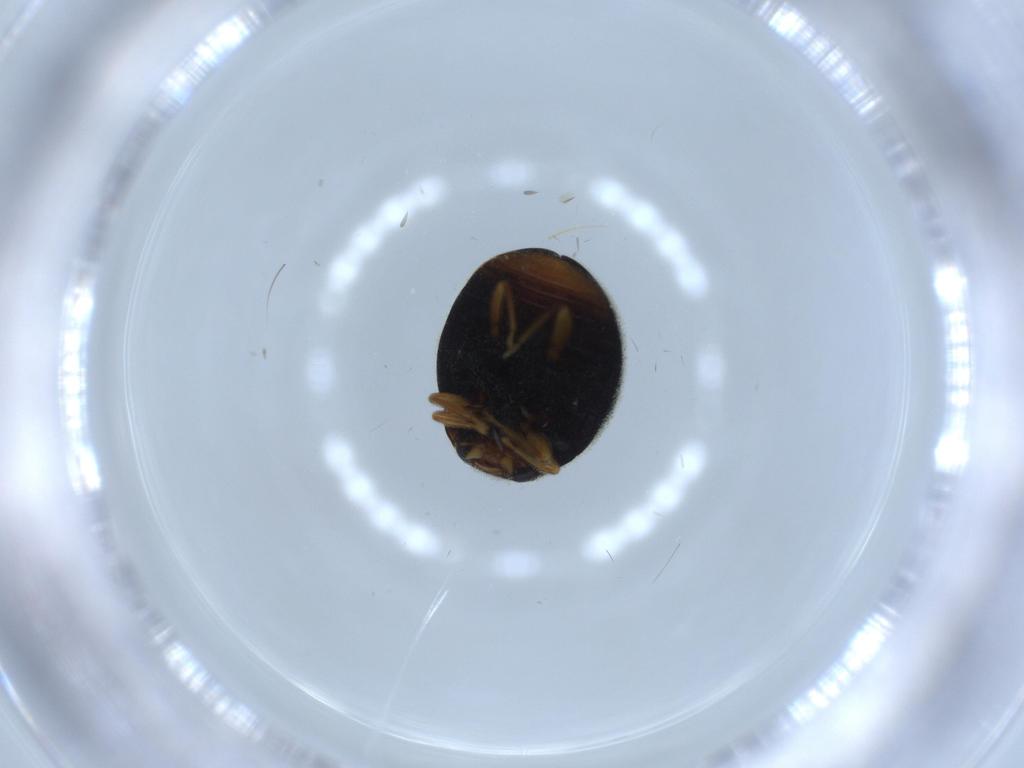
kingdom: Animalia
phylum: Arthropoda
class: Insecta
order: Coleoptera
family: Coccinellidae
